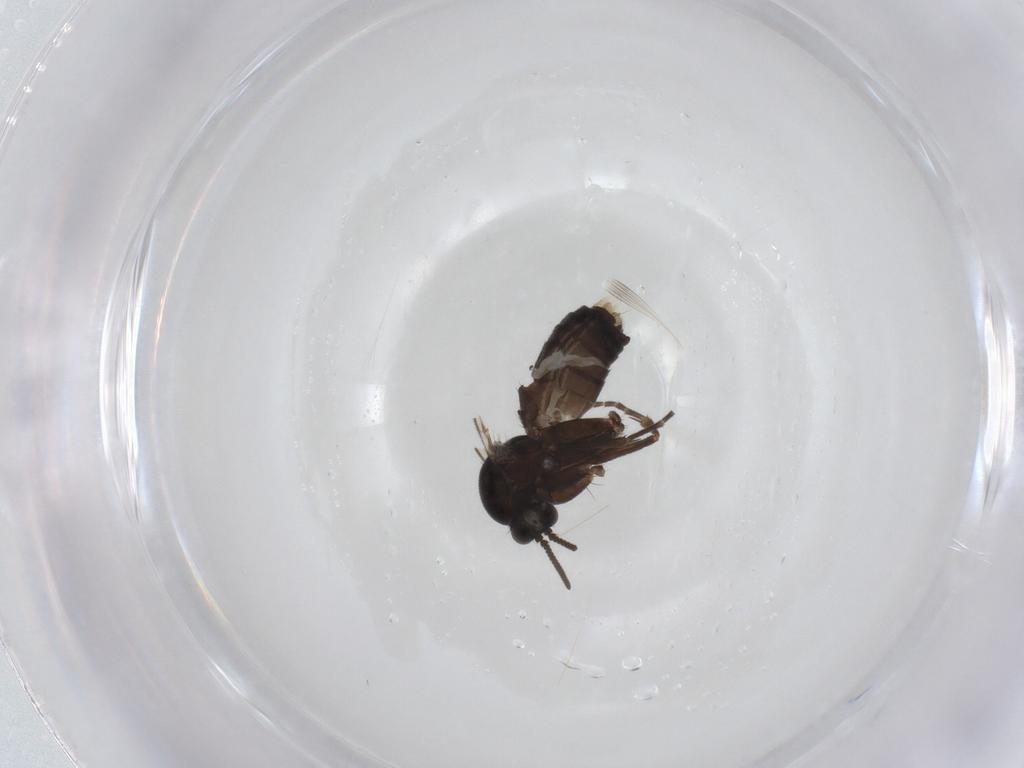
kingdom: Animalia
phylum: Arthropoda
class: Insecta
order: Diptera
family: Mycetophilidae
